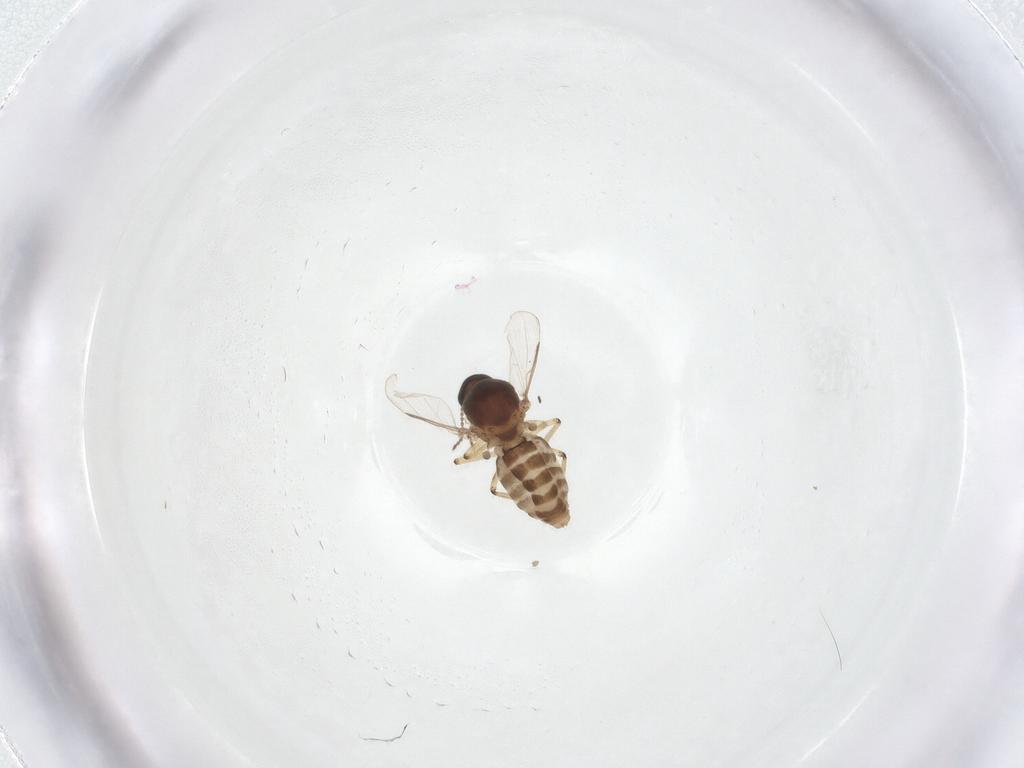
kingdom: Animalia
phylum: Arthropoda
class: Insecta
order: Diptera
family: Ceratopogonidae
